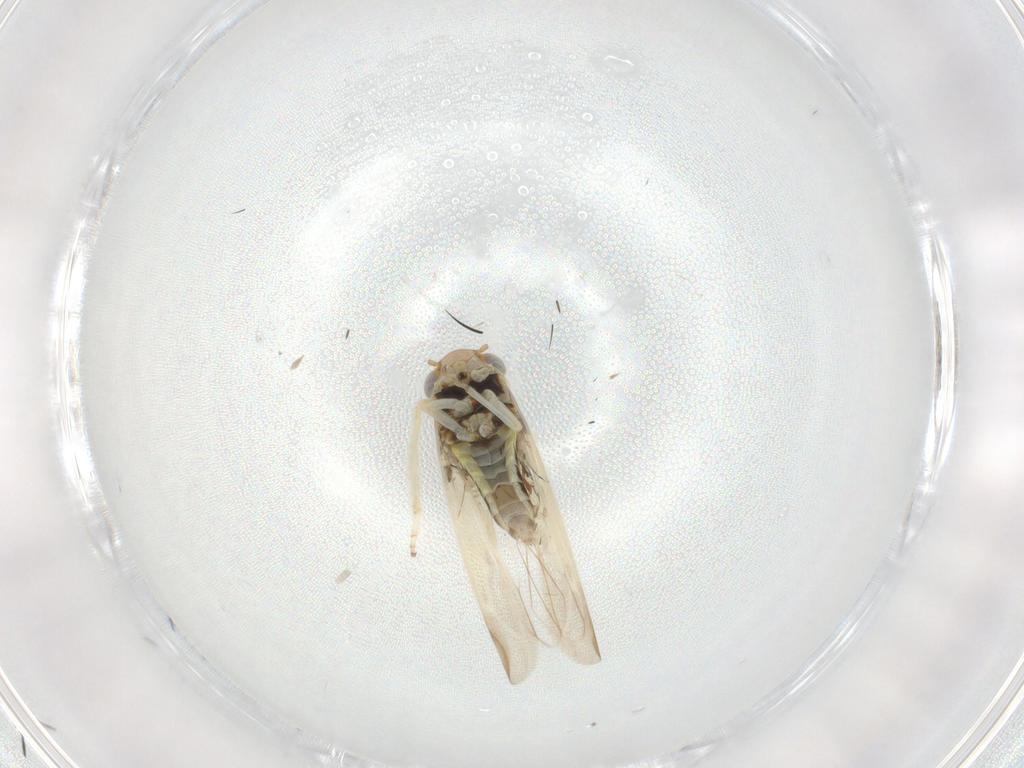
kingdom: Animalia
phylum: Arthropoda
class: Insecta
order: Hemiptera
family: Cicadellidae
